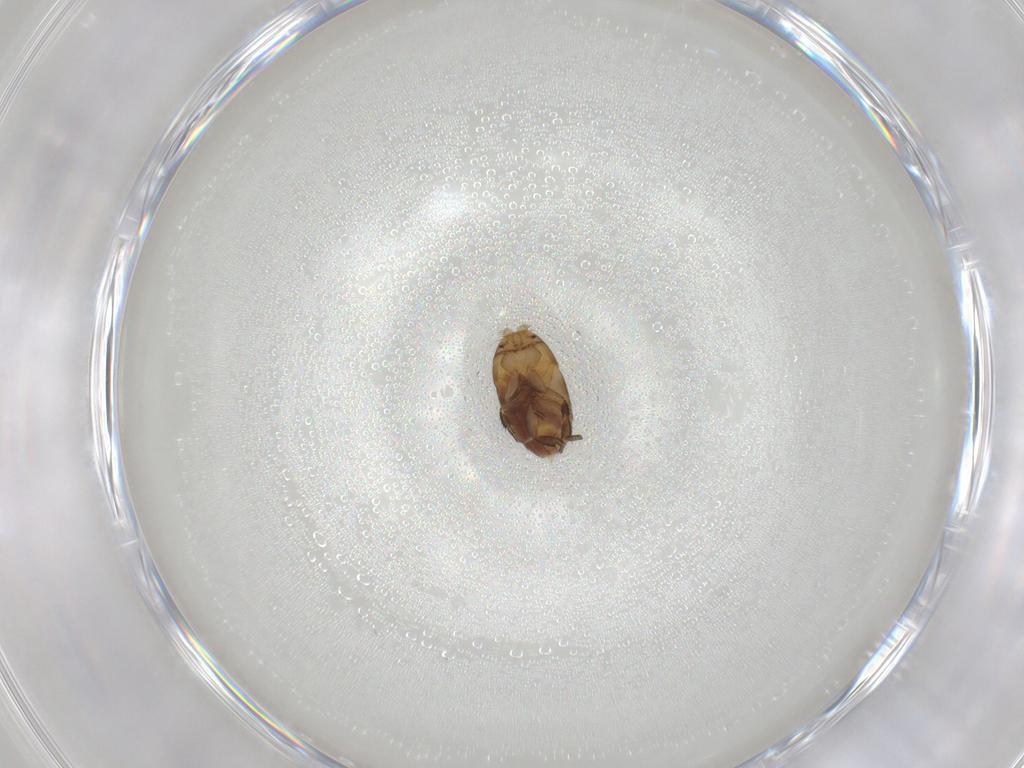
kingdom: Animalia
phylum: Arthropoda
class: Insecta
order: Diptera
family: Phoridae
